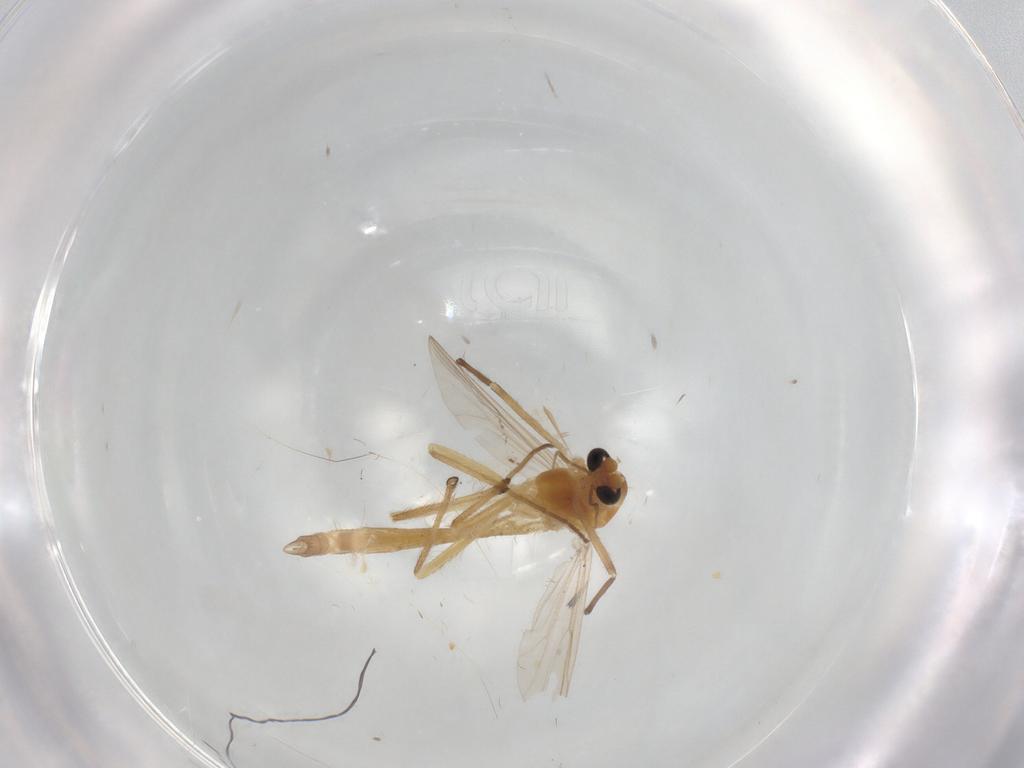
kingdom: Animalia
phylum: Arthropoda
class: Insecta
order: Diptera
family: Chironomidae
